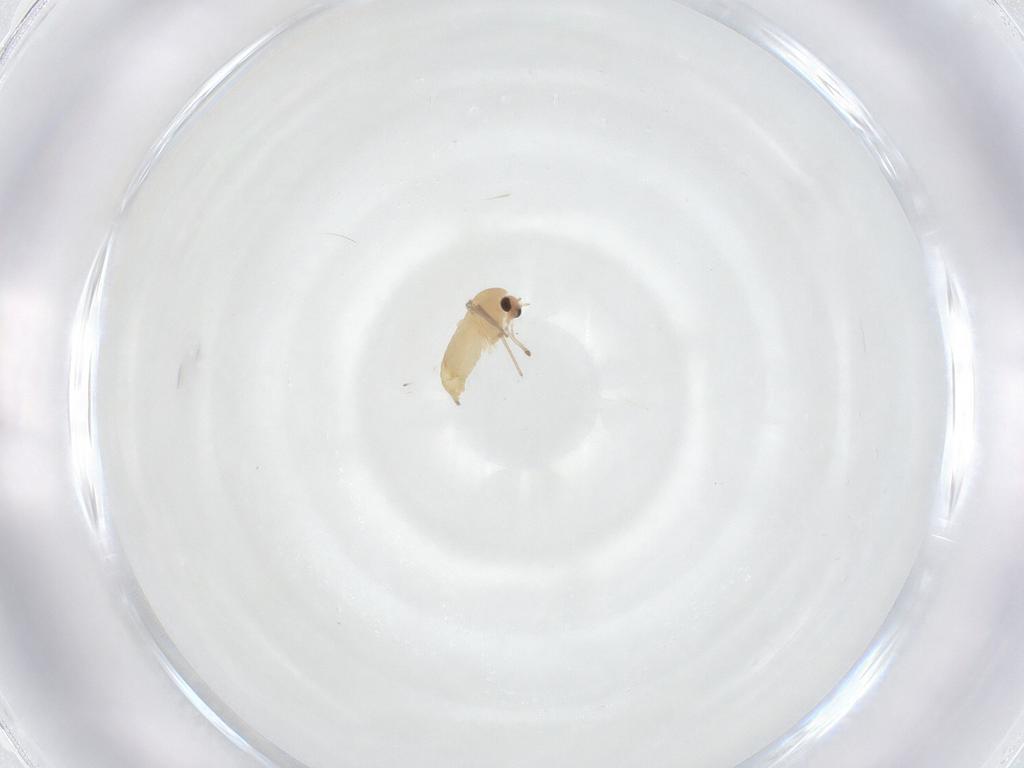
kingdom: Animalia
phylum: Arthropoda
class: Insecta
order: Diptera
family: Chironomidae
